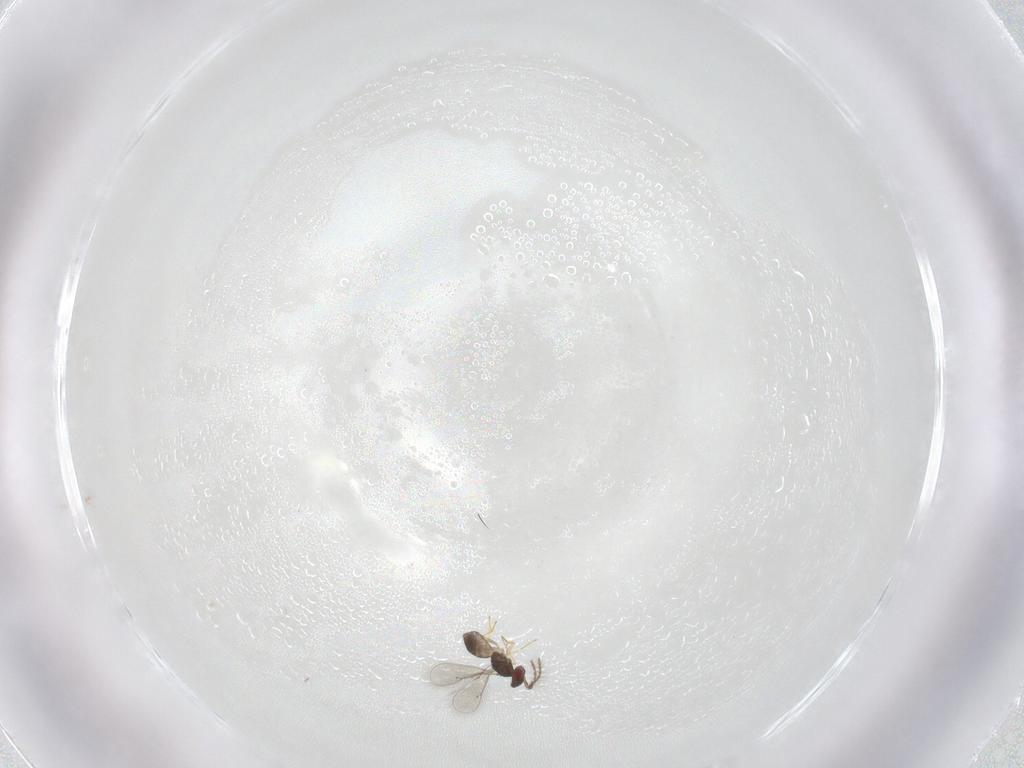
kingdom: Animalia
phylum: Arthropoda
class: Insecta
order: Hymenoptera
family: Eulophidae
